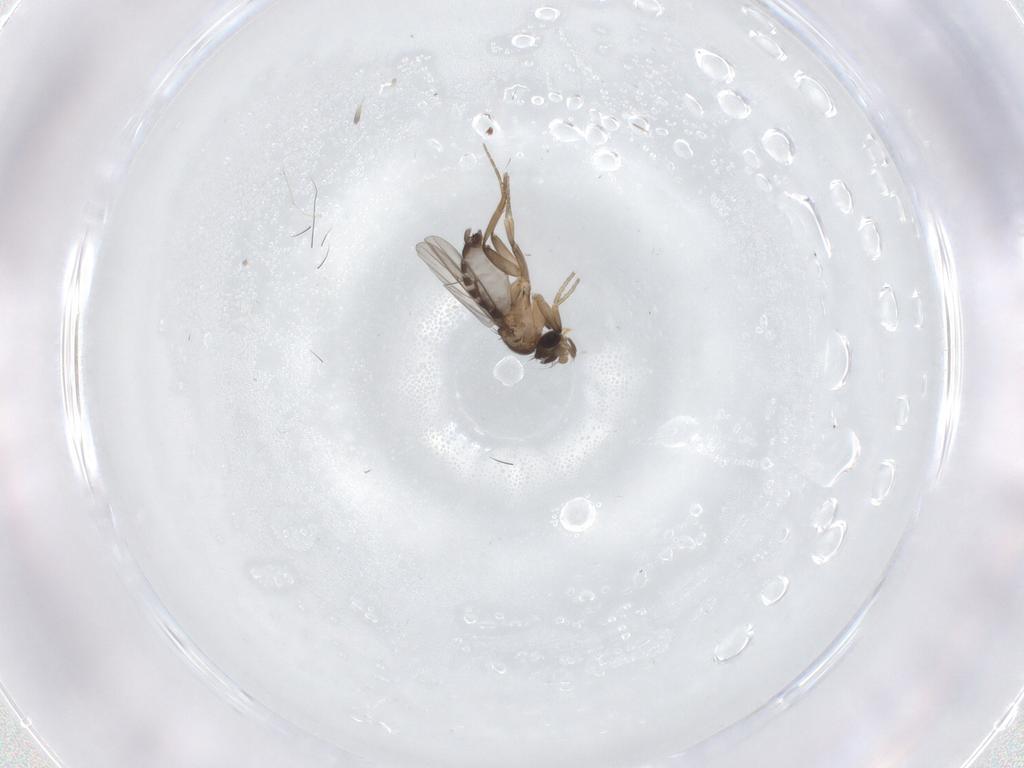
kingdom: Animalia
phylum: Arthropoda
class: Insecta
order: Diptera
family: Phoridae
